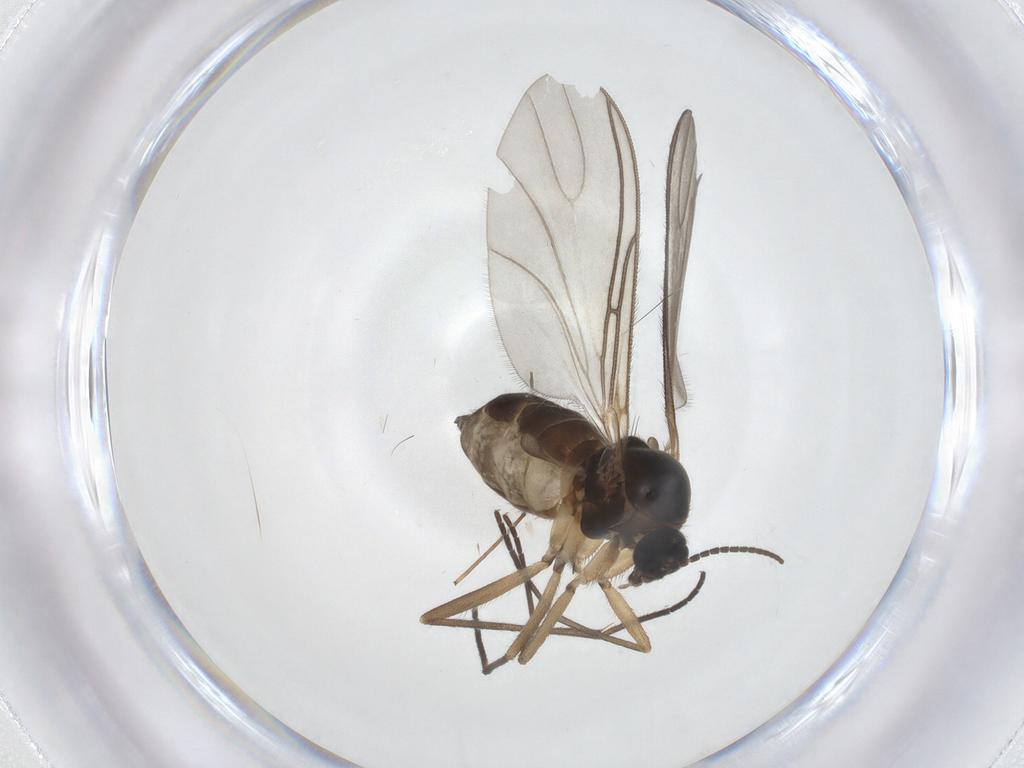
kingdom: Animalia
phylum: Arthropoda
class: Insecta
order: Diptera
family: Sciaridae
